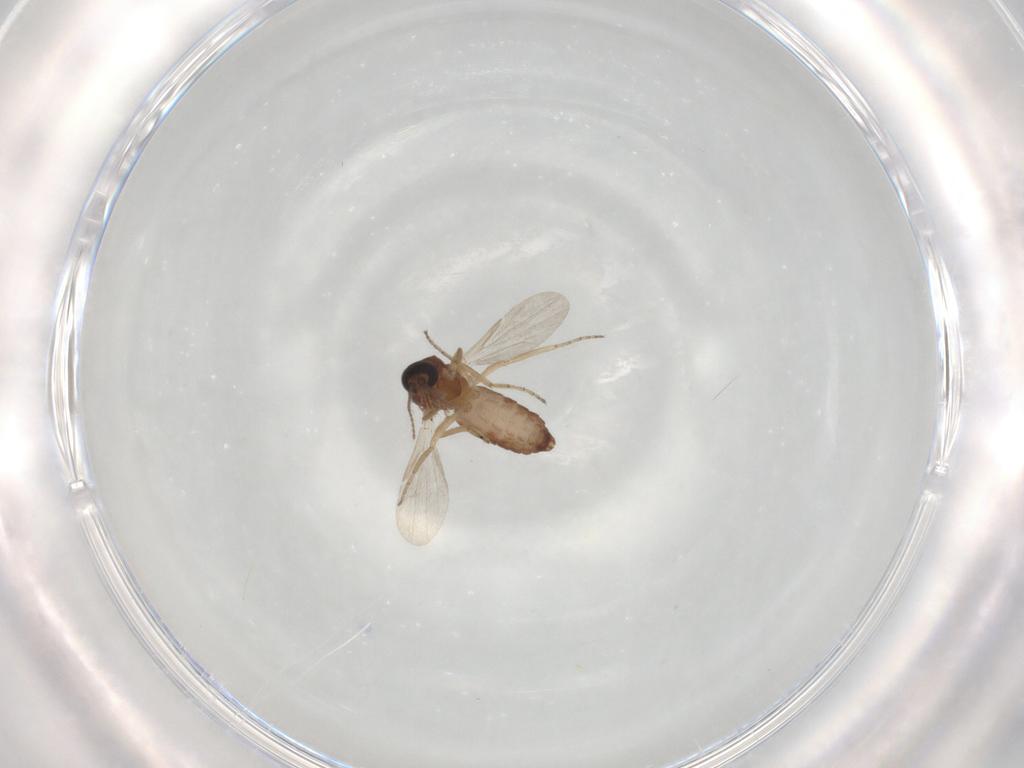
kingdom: Animalia
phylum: Arthropoda
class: Insecta
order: Diptera
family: Ceratopogonidae
